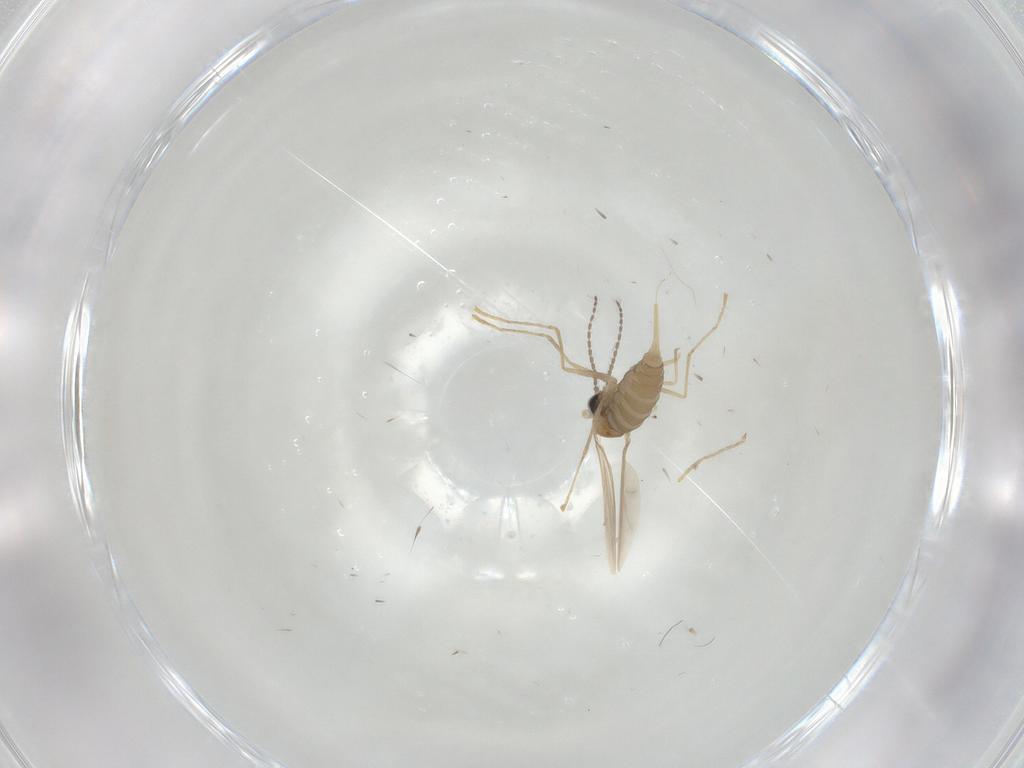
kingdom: Animalia
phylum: Arthropoda
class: Insecta
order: Diptera
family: Cecidomyiidae
